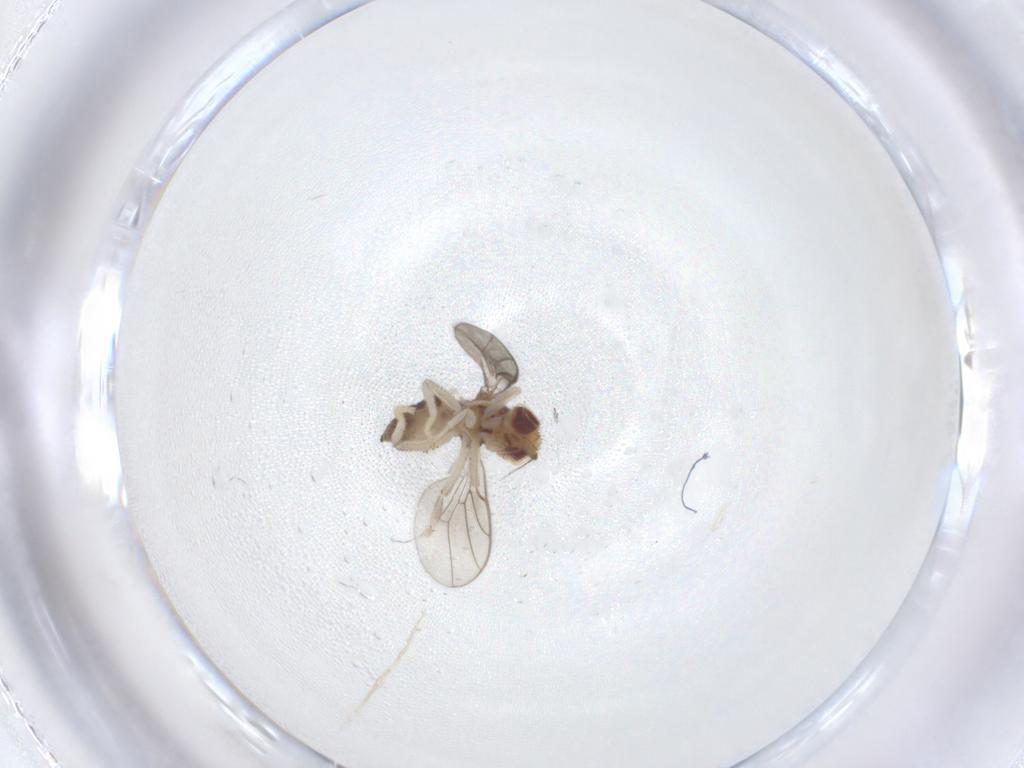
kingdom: Animalia
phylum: Arthropoda
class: Insecta
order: Diptera
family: Chloropidae
